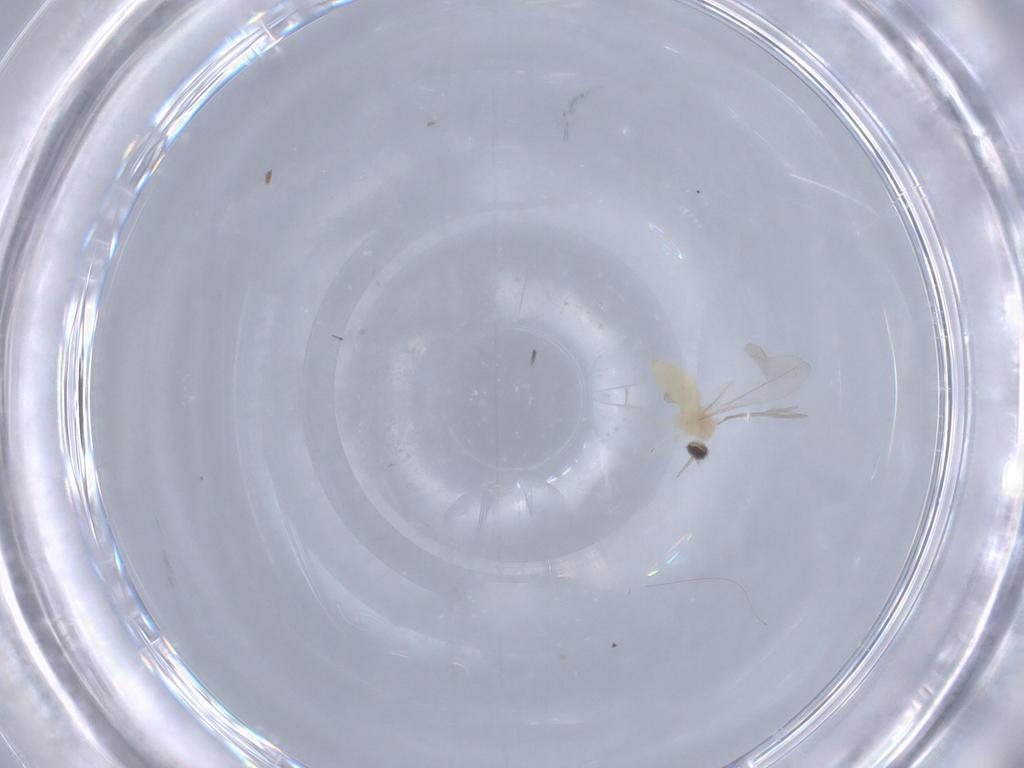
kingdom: Animalia
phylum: Arthropoda
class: Insecta
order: Diptera
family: Cecidomyiidae
